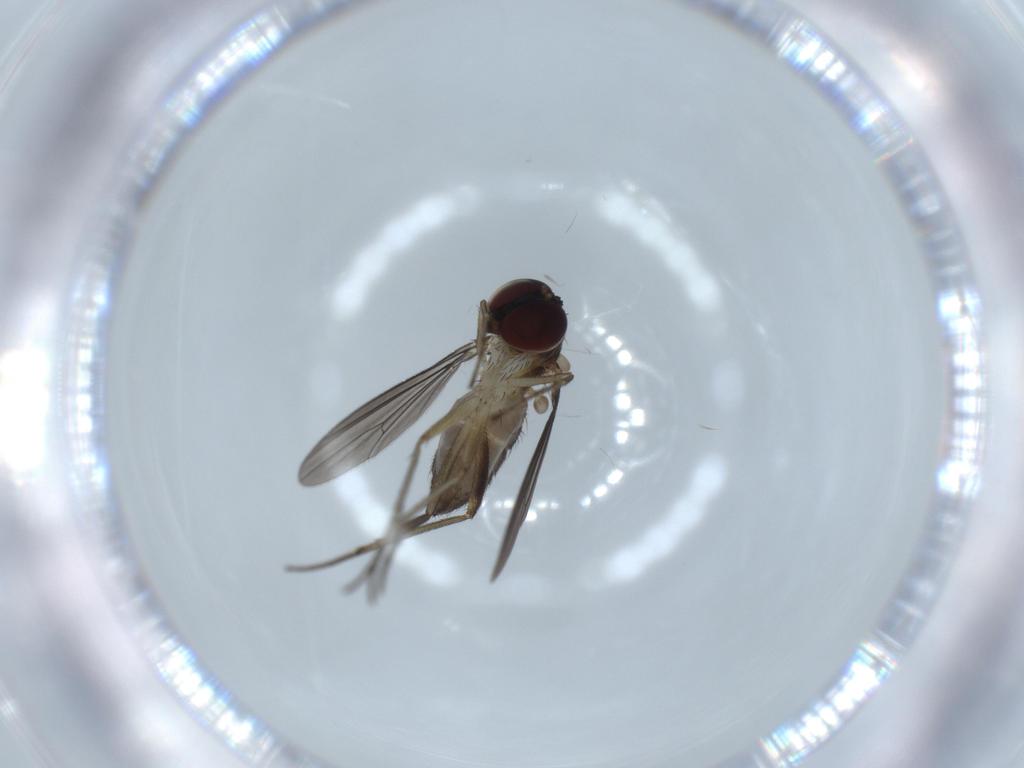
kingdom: Animalia
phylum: Arthropoda
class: Insecta
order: Diptera
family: Dolichopodidae
